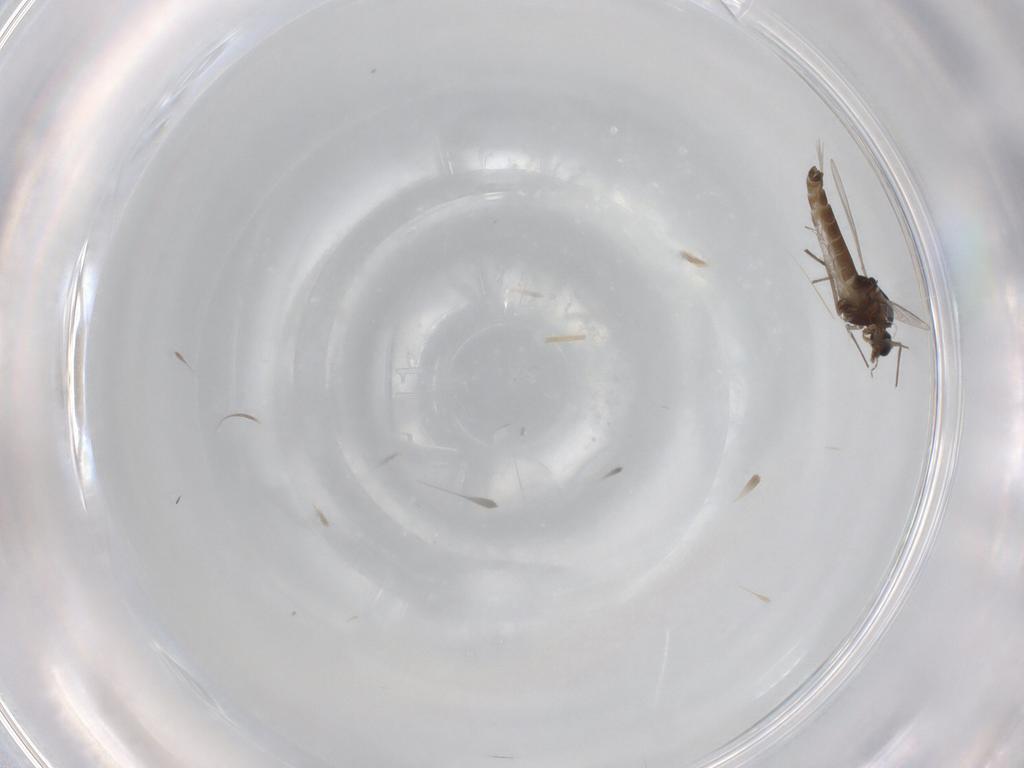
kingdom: Animalia
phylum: Arthropoda
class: Insecta
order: Diptera
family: Chironomidae
